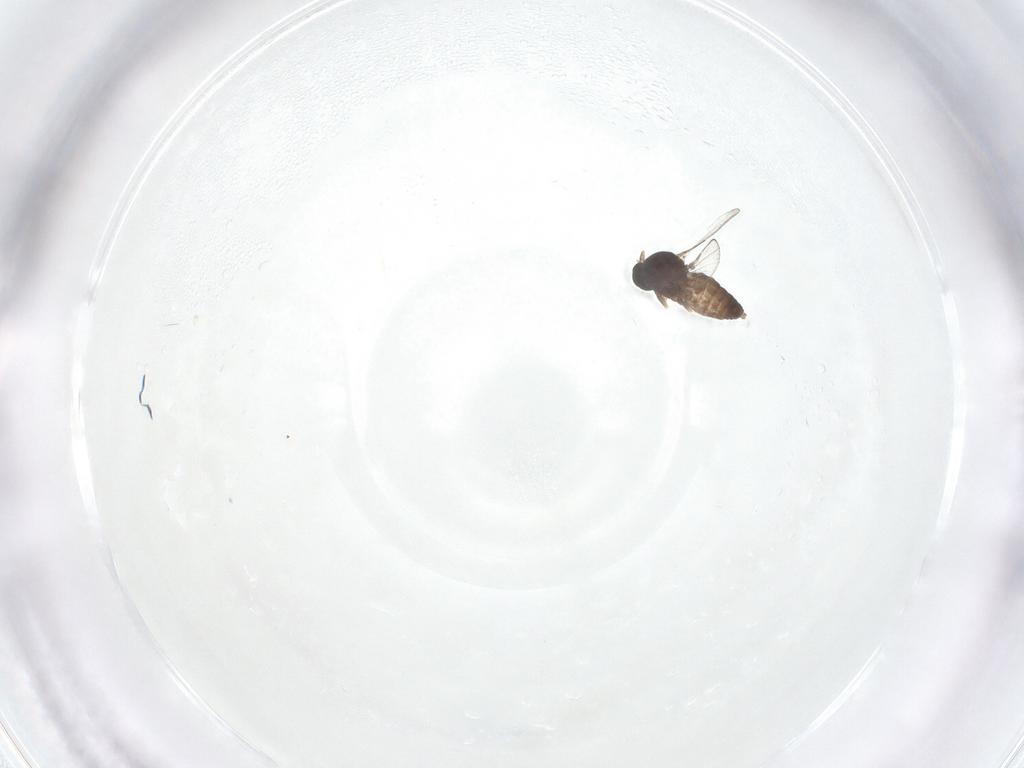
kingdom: Animalia
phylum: Arthropoda
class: Insecta
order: Diptera
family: Ceratopogonidae
